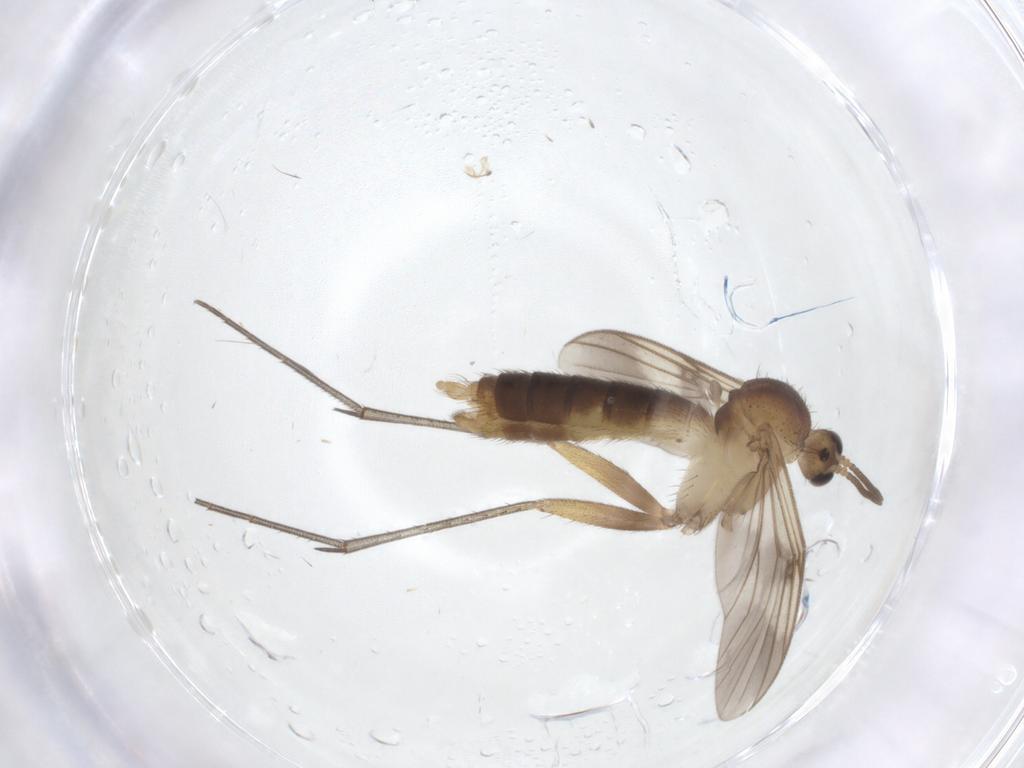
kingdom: Animalia
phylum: Arthropoda
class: Insecta
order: Diptera
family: Mycetophilidae
